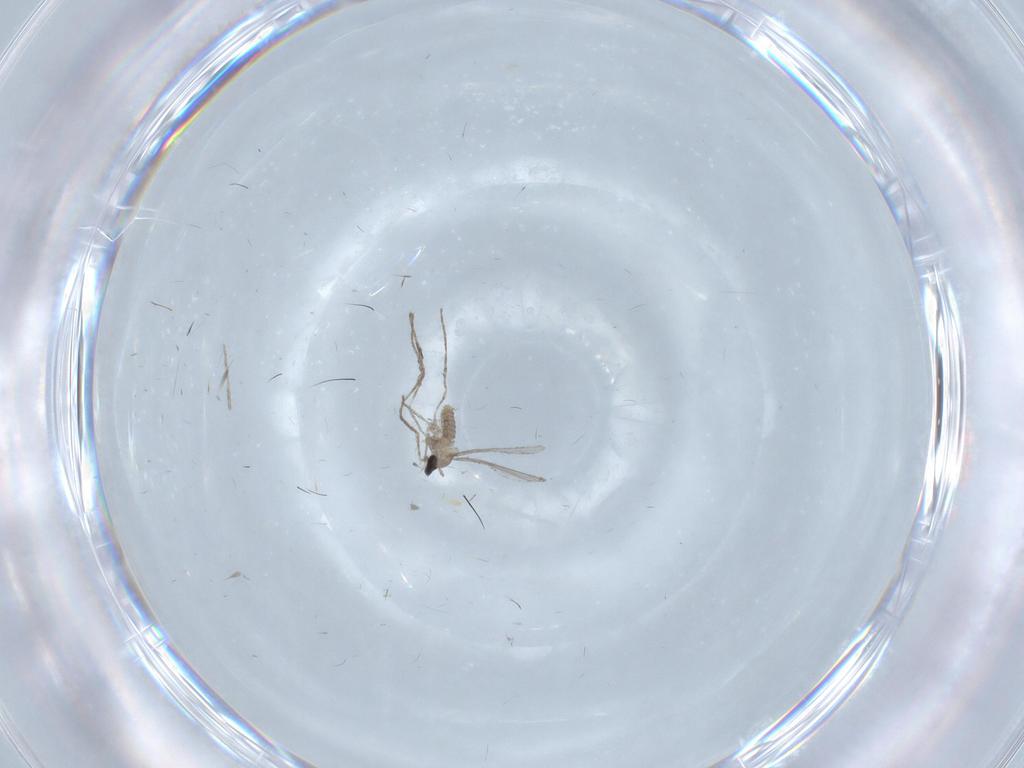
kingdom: Animalia
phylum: Arthropoda
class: Insecta
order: Diptera
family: Cecidomyiidae
